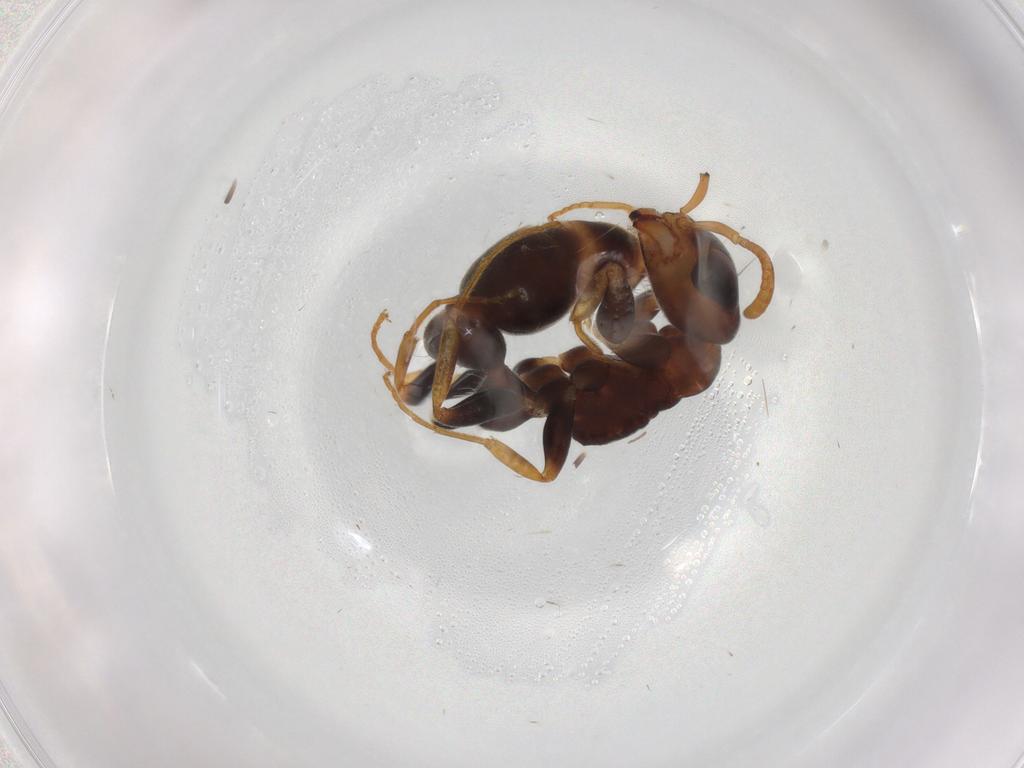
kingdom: Animalia
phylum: Arthropoda
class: Insecta
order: Hymenoptera
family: Formicidae
